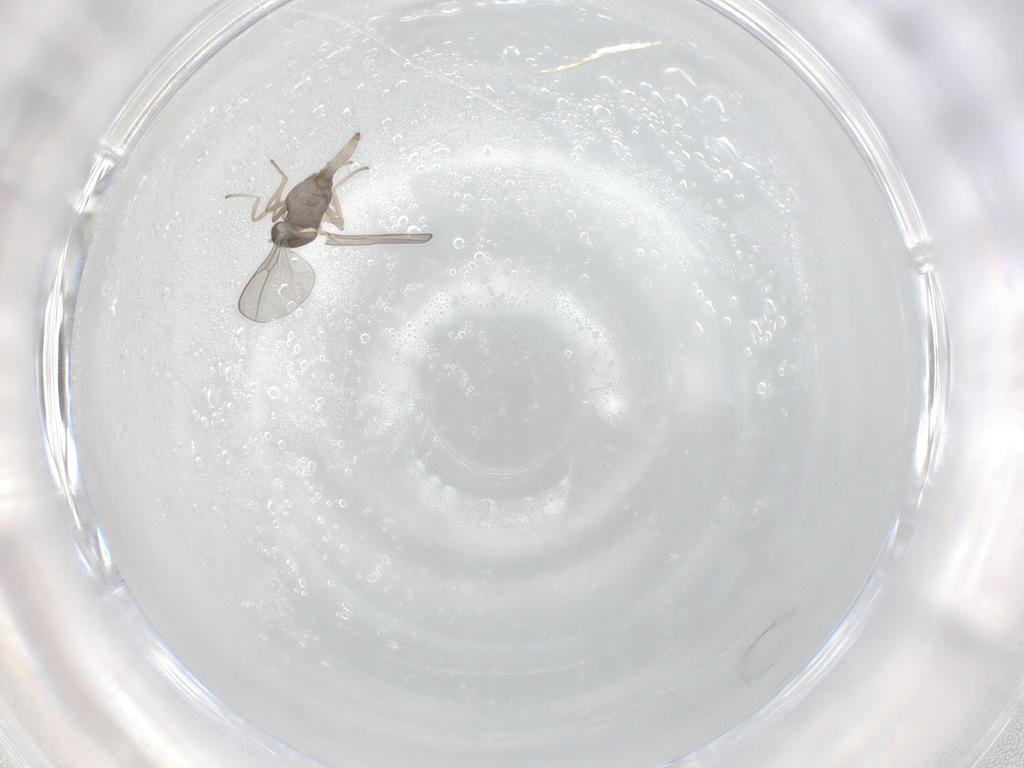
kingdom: Animalia
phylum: Arthropoda
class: Insecta
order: Diptera
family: Cecidomyiidae
